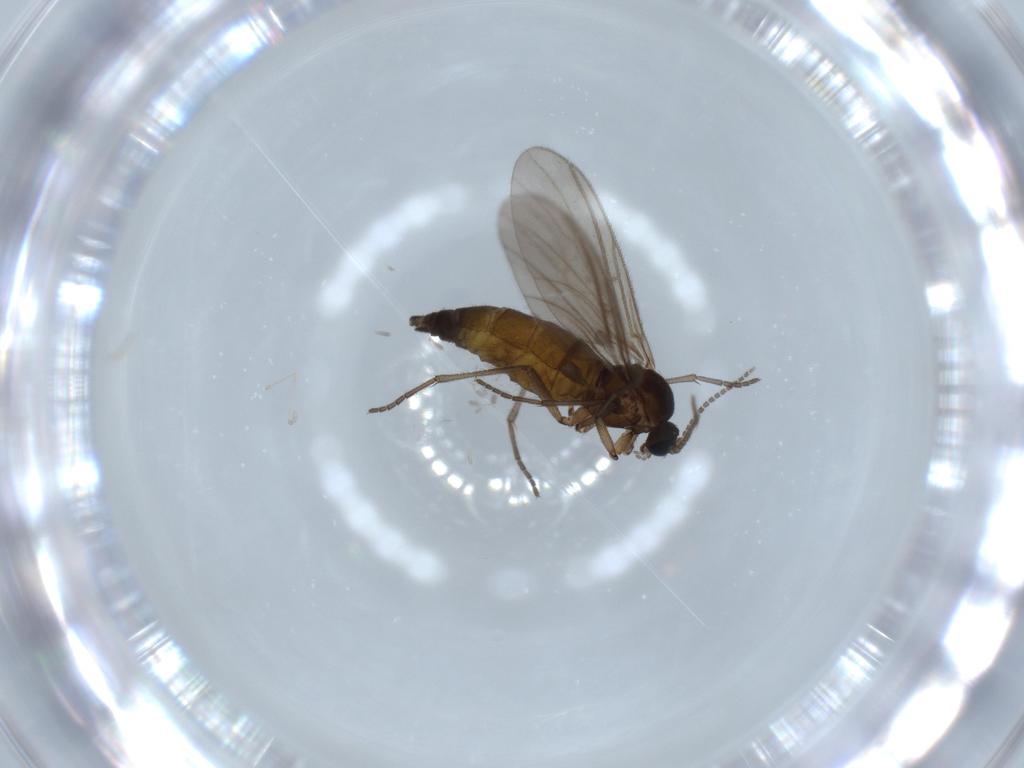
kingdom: Animalia
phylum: Arthropoda
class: Insecta
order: Diptera
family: Sciaridae
